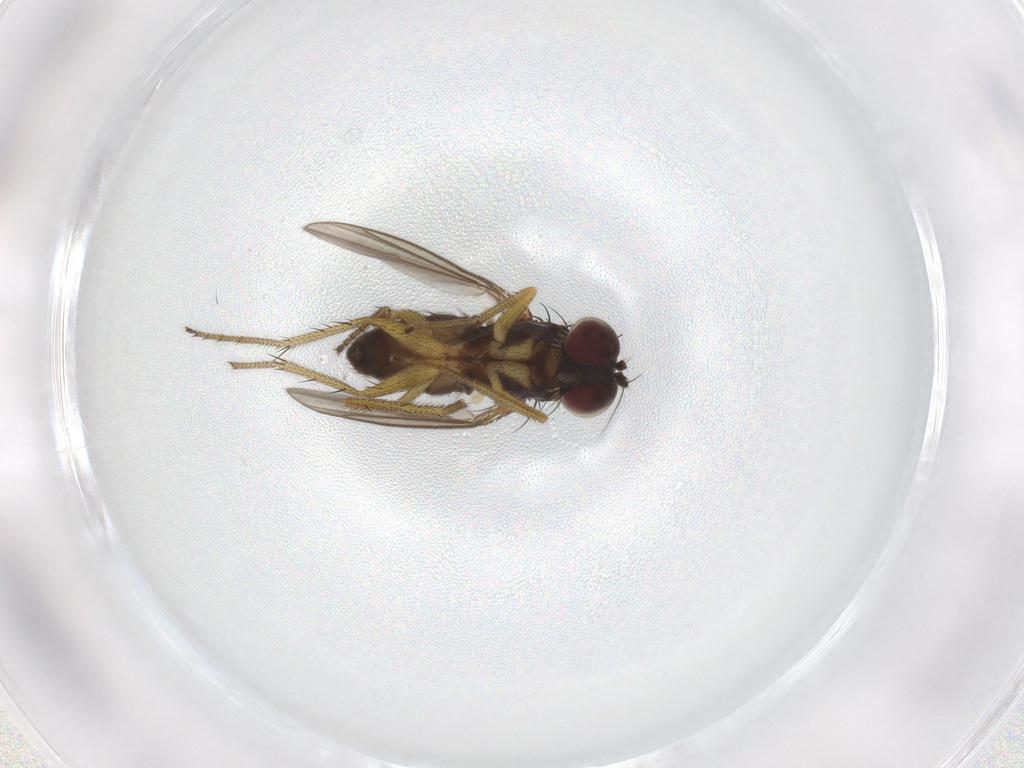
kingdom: Animalia
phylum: Arthropoda
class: Insecta
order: Diptera
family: Dolichopodidae
